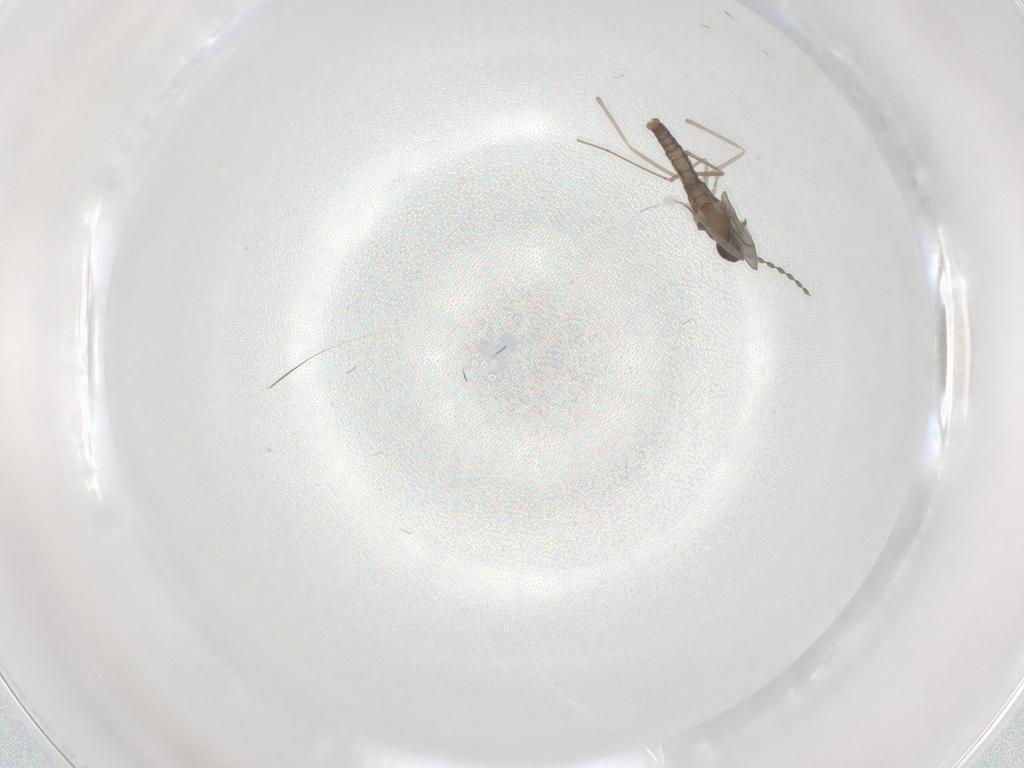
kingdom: Animalia
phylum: Arthropoda
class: Insecta
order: Diptera
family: Cecidomyiidae
